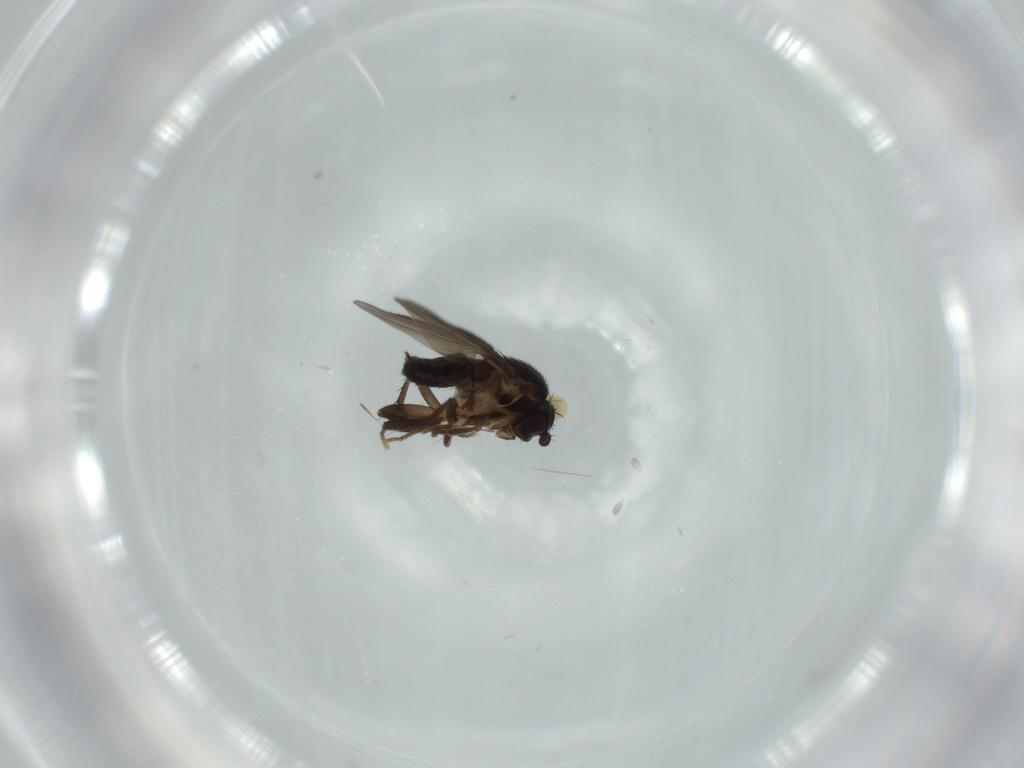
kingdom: Animalia
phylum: Arthropoda
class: Insecta
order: Diptera
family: Sphaeroceridae
